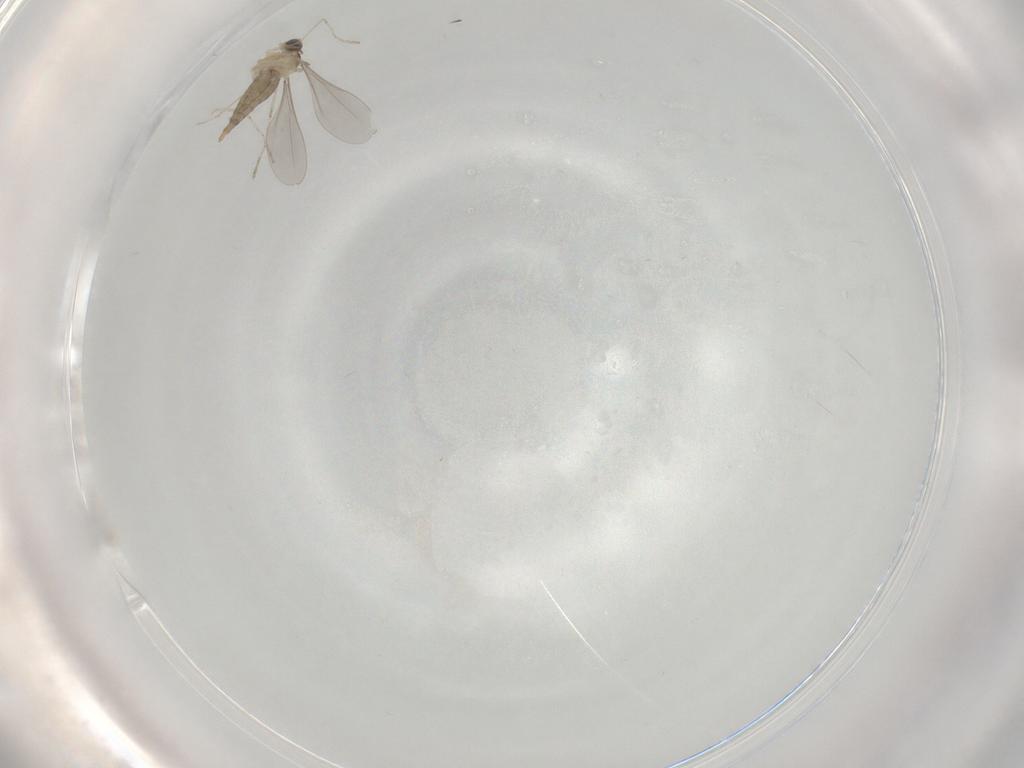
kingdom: Animalia
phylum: Arthropoda
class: Insecta
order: Diptera
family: Cecidomyiidae
